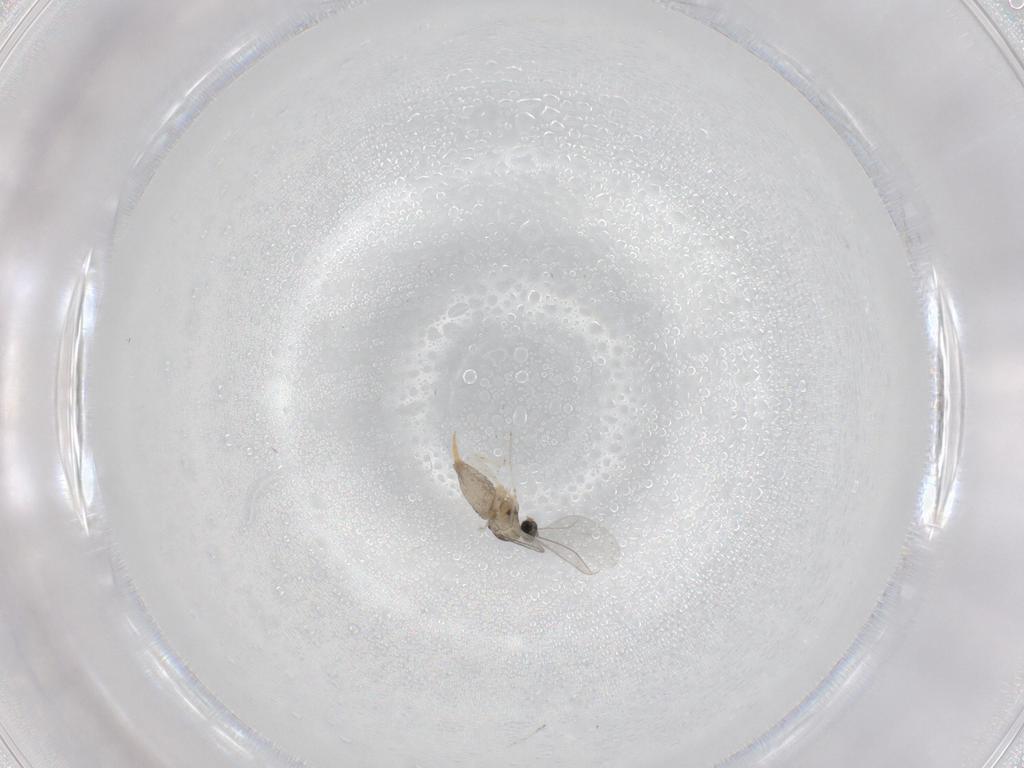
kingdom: Animalia
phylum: Arthropoda
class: Insecta
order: Diptera
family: Cecidomyiidae
